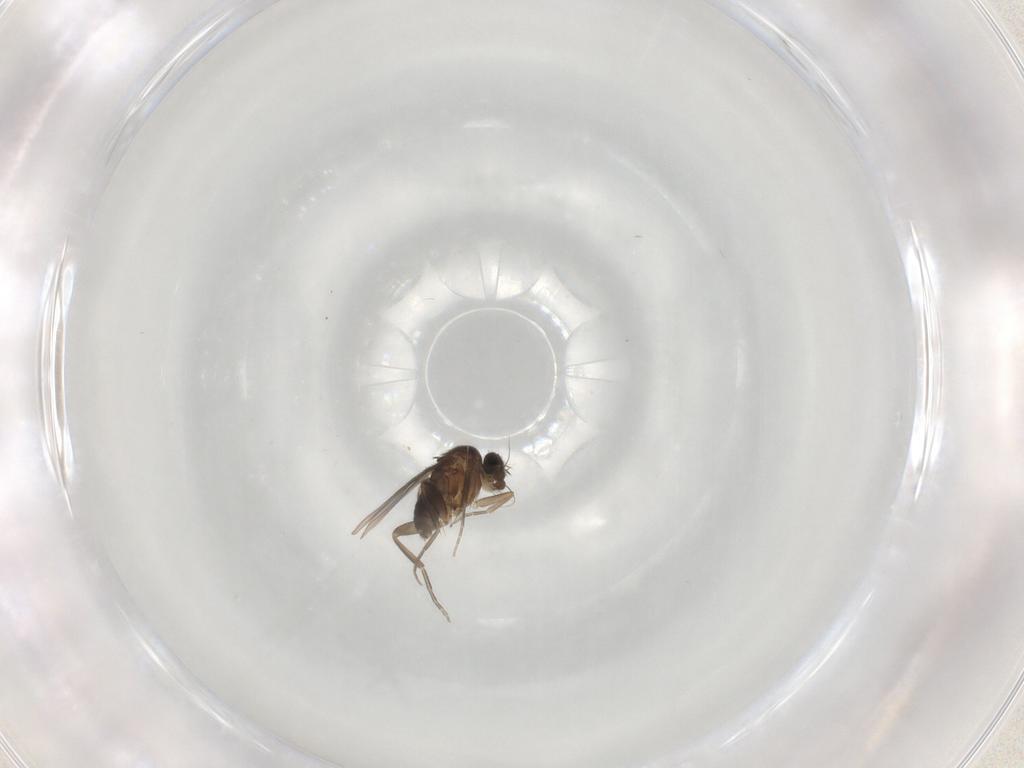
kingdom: Animalia
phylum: Arthropoda
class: Insecta
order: Diptera
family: Phoridae
